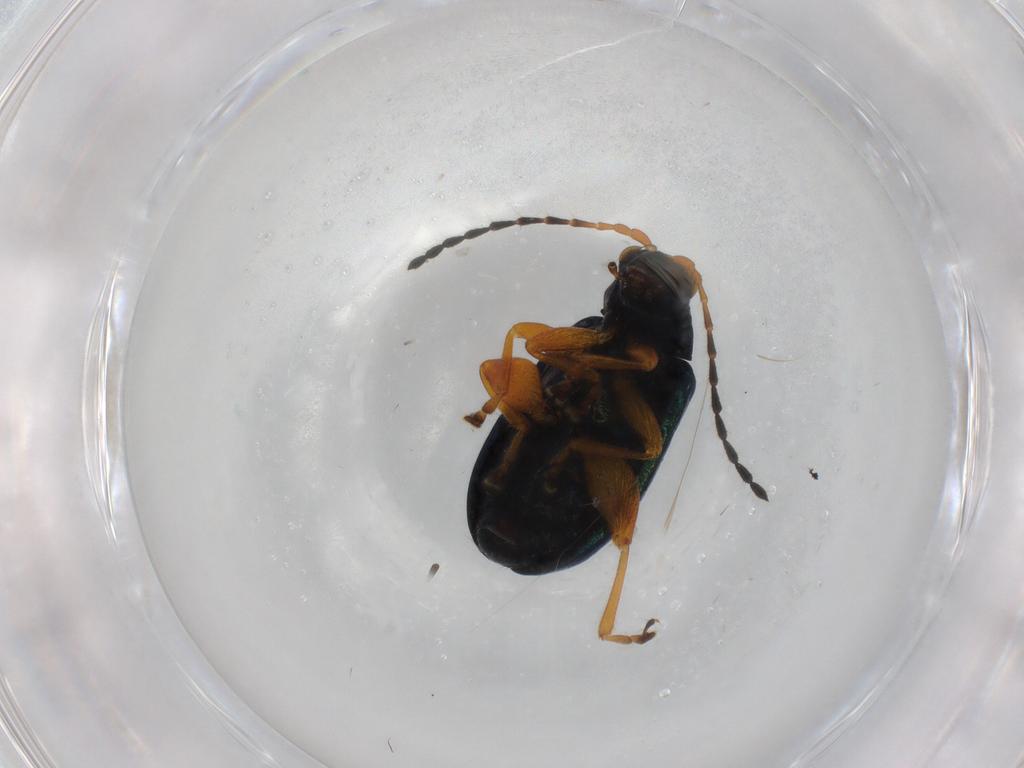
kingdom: Animalia
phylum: Arthropoda
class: Insecta
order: Coleoptera
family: Chrysomelidae
